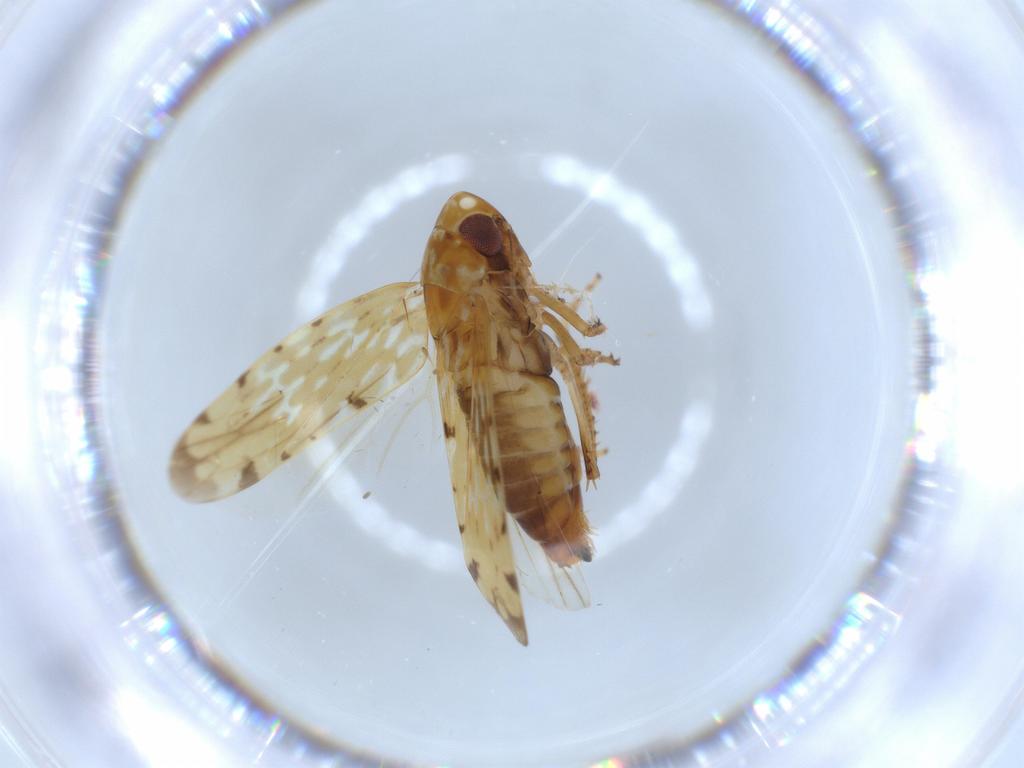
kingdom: Animalia
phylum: Arthropoda
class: Insecta
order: Hemiptera
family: Cicadellidae
